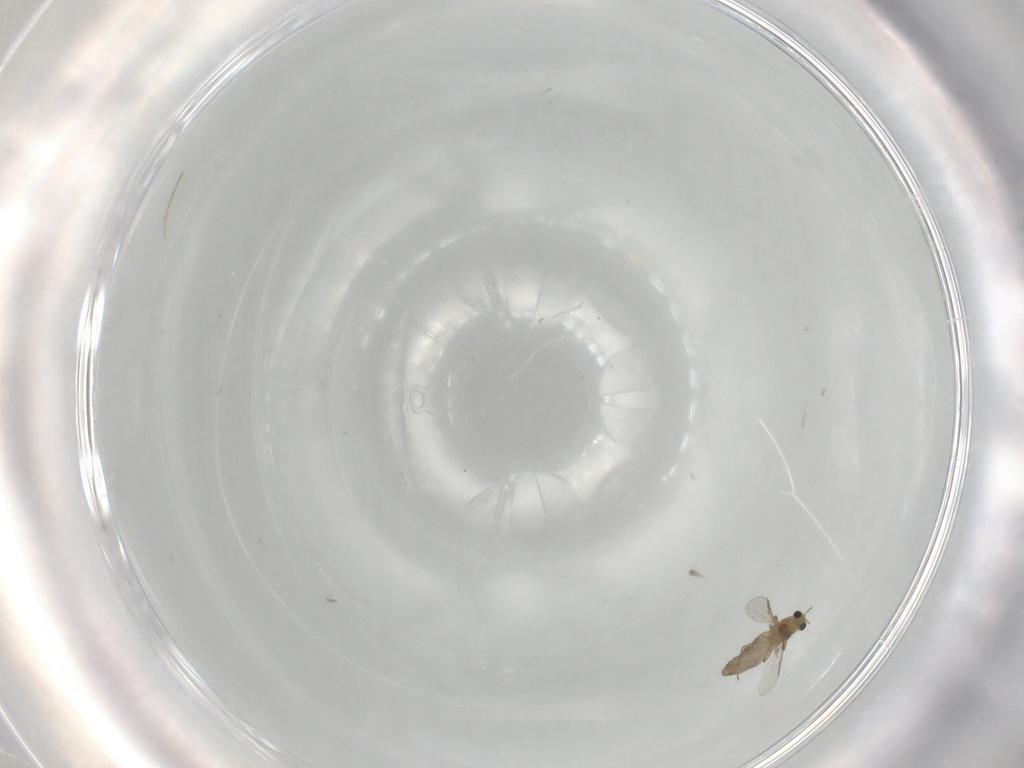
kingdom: Animalia
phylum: Arthropoda
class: Insecta
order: Diptera
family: Chironomidae
